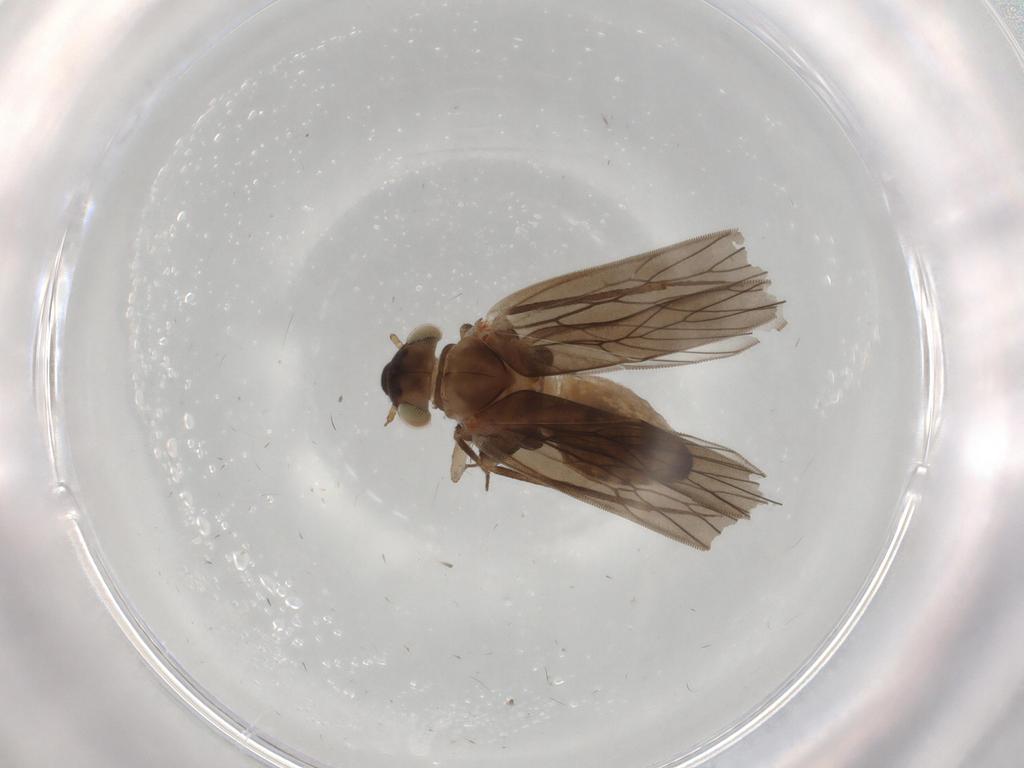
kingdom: Animalia
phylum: Arthropoda
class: Insecta
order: Psocodea
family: Lepidopsocidae
